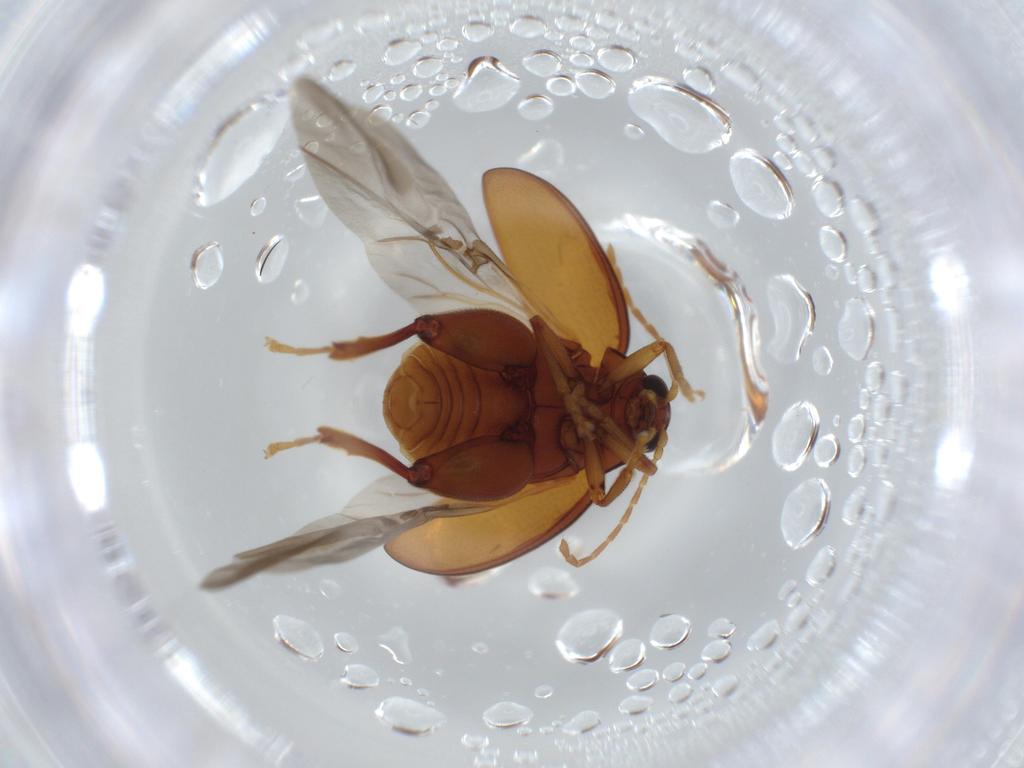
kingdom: Animalia
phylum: Arthropoda
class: Insecta
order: Coleoptera
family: Chrysomelidae
